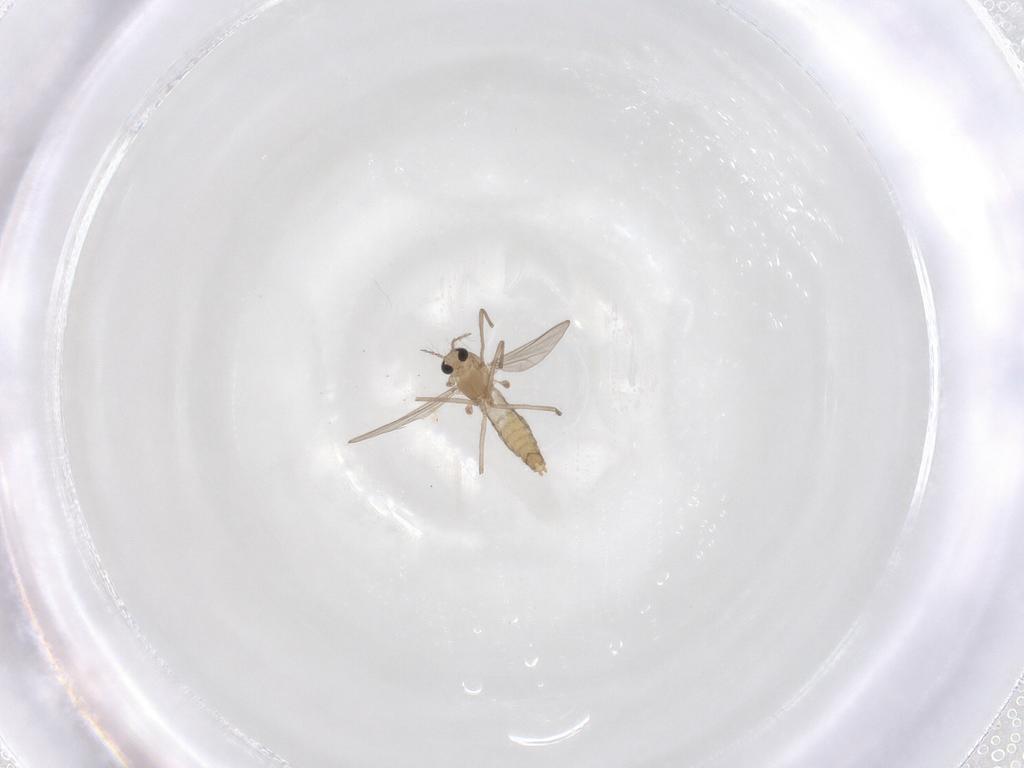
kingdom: Animalia
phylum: Arthropoda
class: Insecta
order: Diptera
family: Chironomidae
